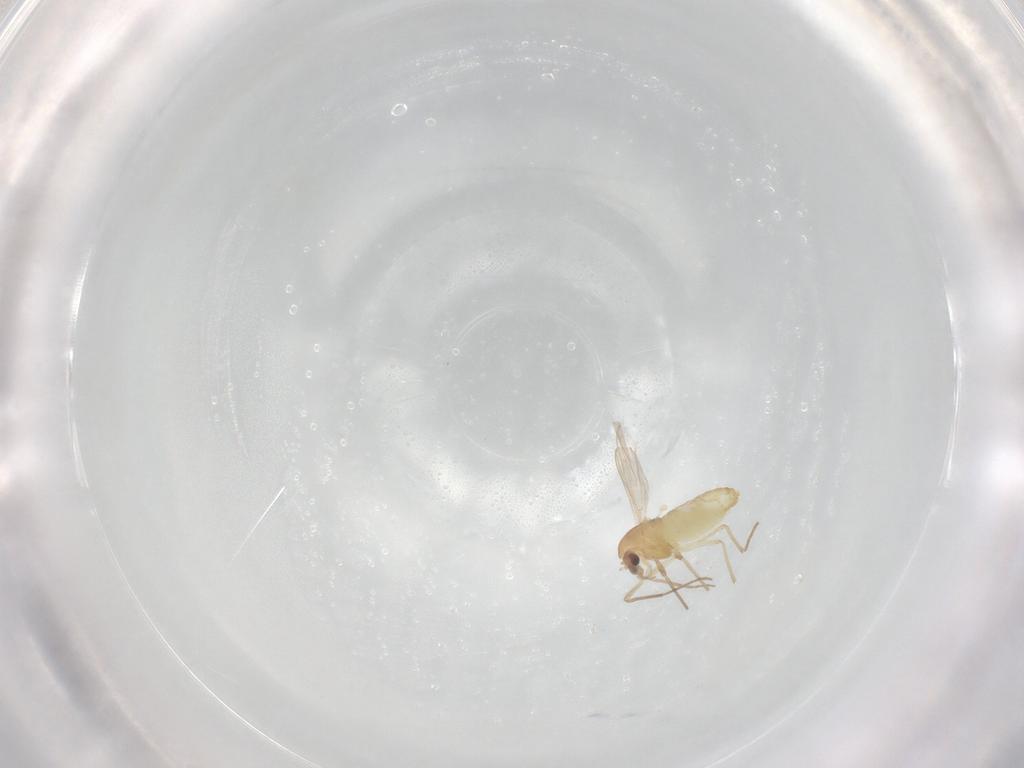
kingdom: Animalia
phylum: Arthropoda
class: Insecta
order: Diptera
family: Chironomidae
